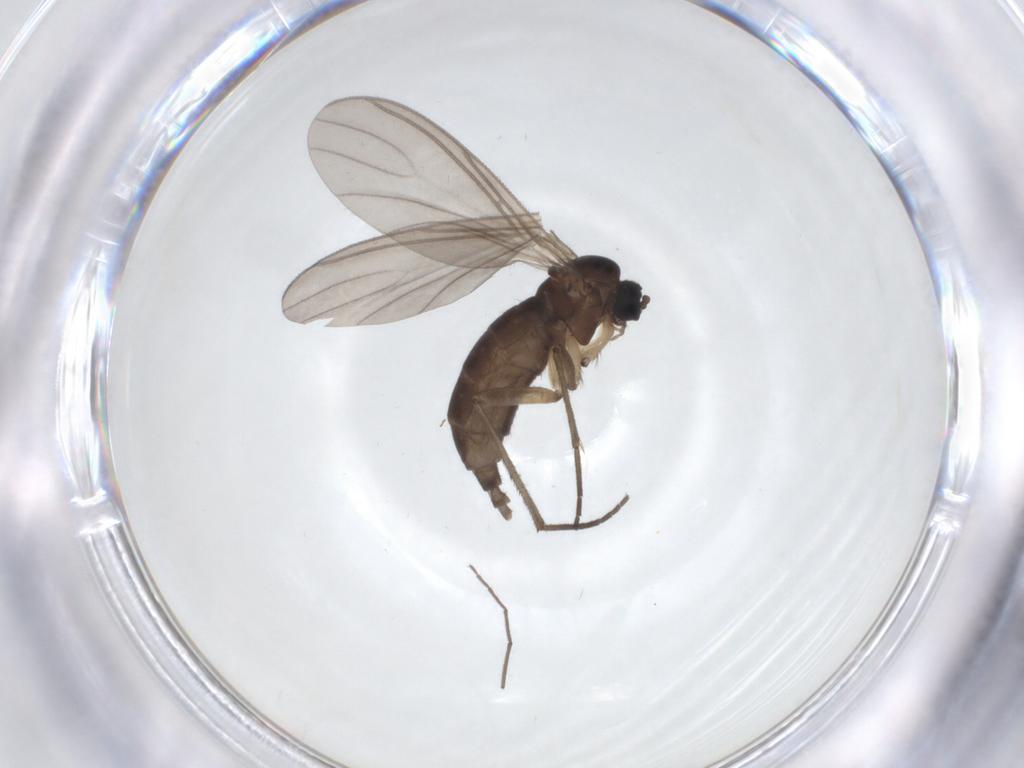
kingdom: Animalia
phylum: Arthropoda
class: Insecta
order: Diptera
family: Sciaridae
